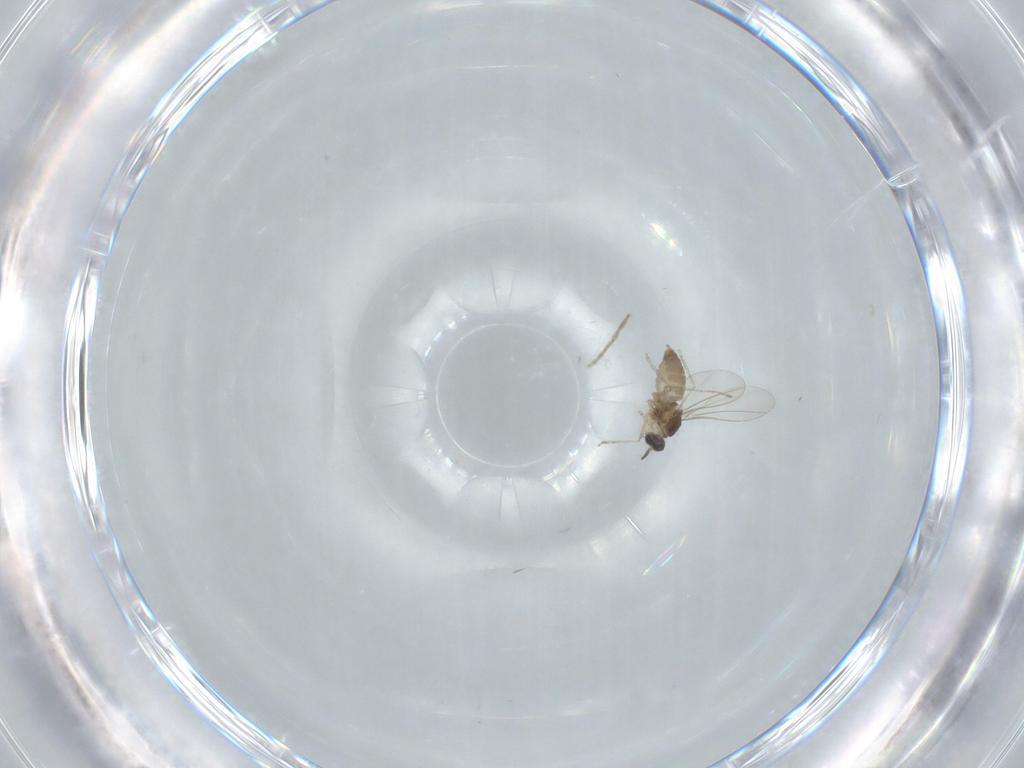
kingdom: Animalia
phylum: Arthropoda
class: Insecta
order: Diptera
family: Cecidomyiidae
